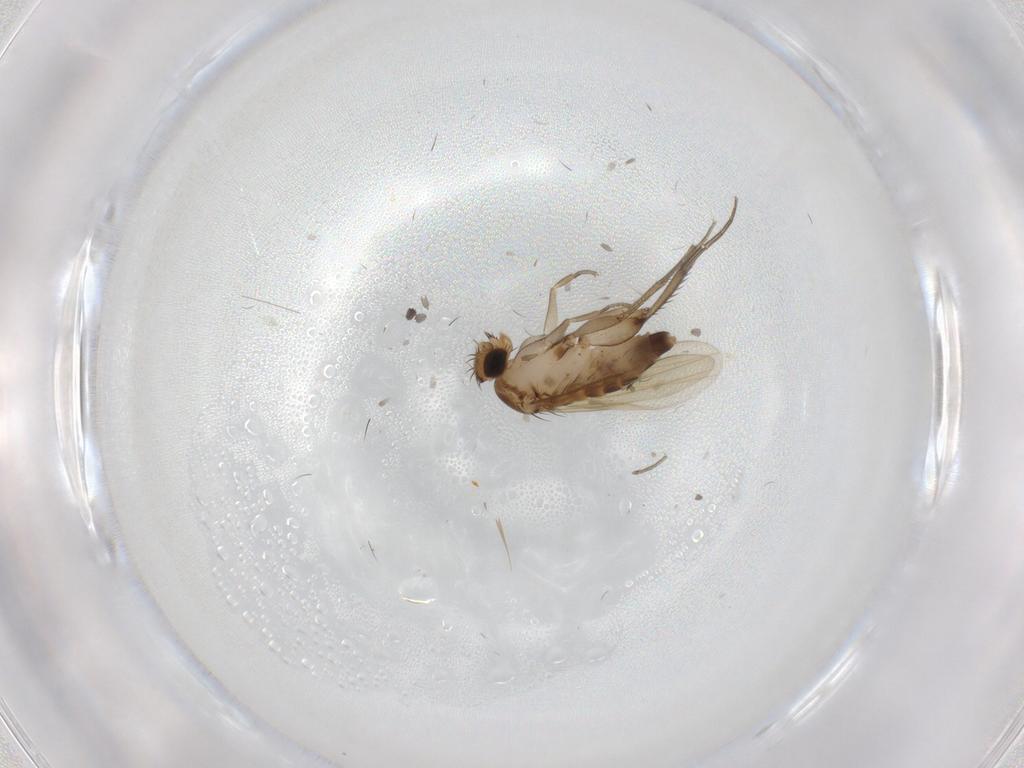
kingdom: Animalia
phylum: Arthropoda
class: Insecta
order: Diptera
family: Phoridae
